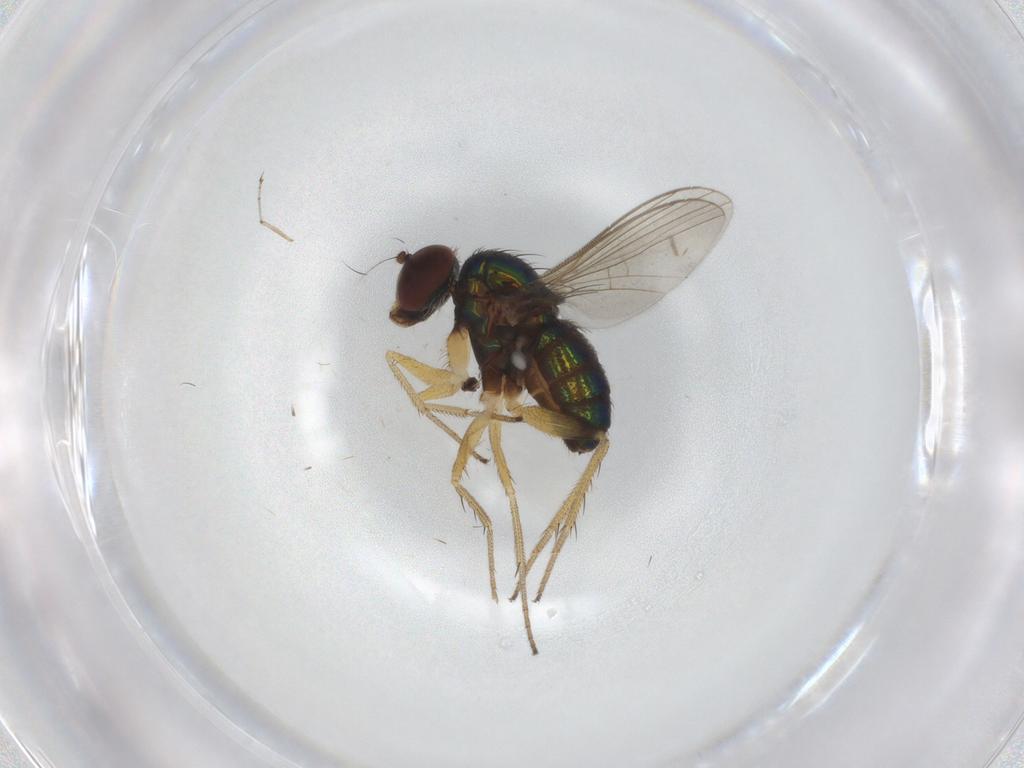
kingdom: Animalia
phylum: Arthropoda
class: Insecta
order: Diptera
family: Cecidomyiidae
